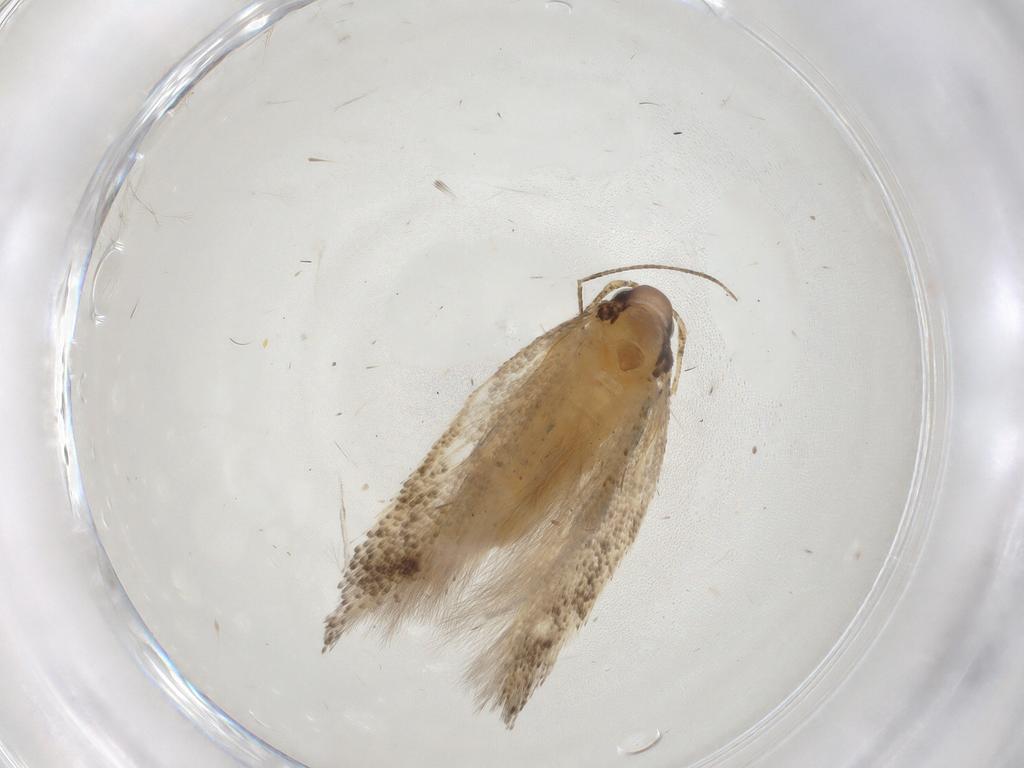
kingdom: Animalia
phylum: Arthropoda
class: Insecta
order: Lepidoptera
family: Gelechiidae
